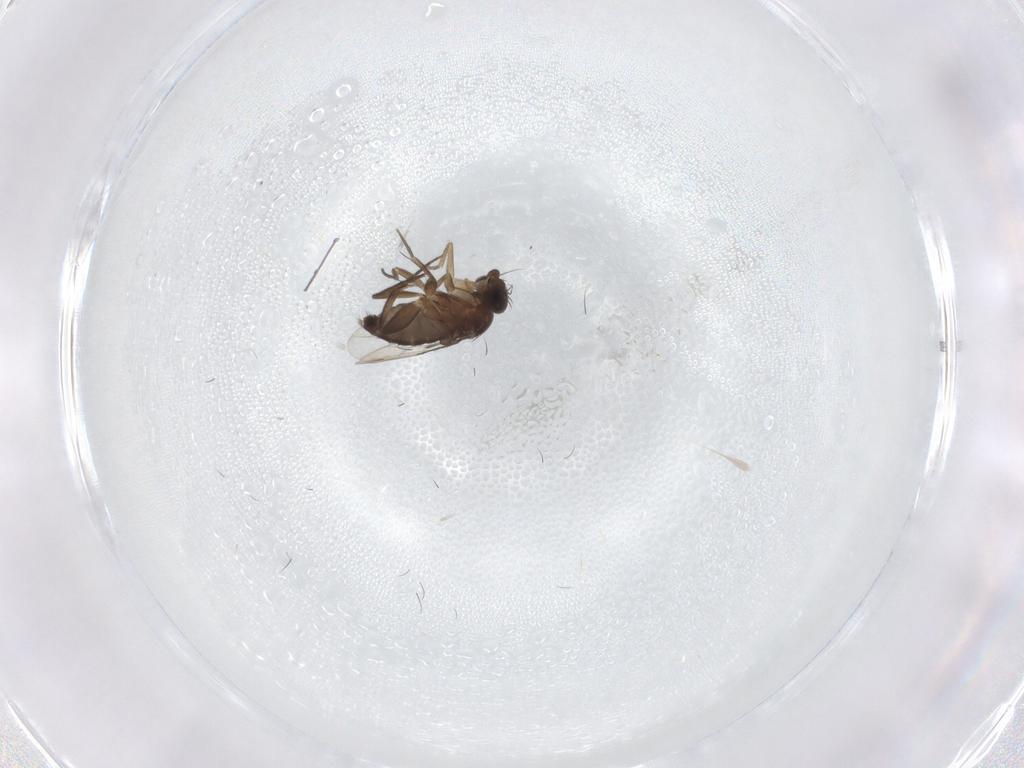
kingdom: Animalia
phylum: Arthropoda
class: Insecta
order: Diptera
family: Phoridae
